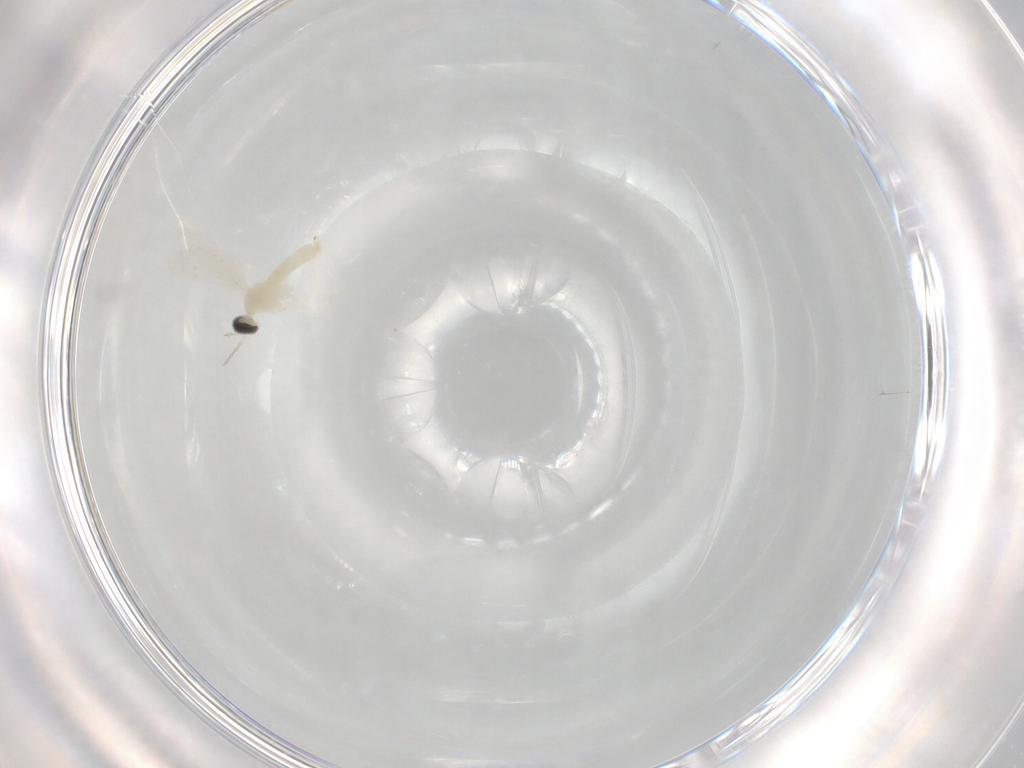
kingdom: Animalia
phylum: Arthropoda
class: Insecta
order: Diptera
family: Cecidomyiidae
